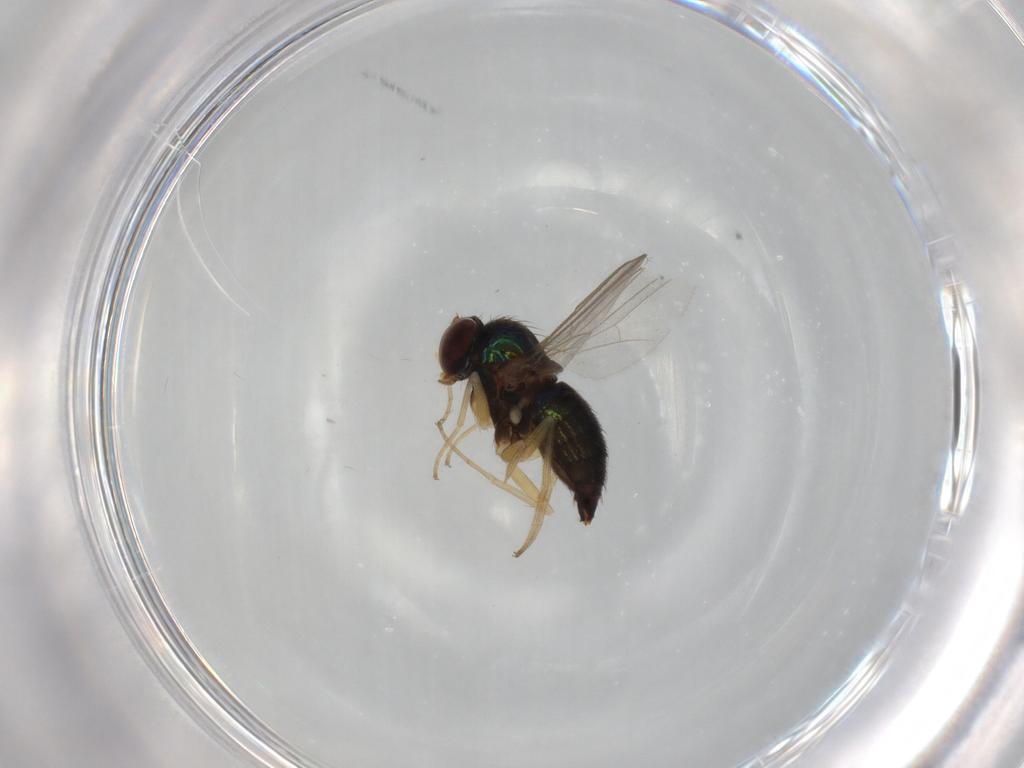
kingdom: Animalia
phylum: Arthropoda
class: Insecta
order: Diptera
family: Dolichopodidae
